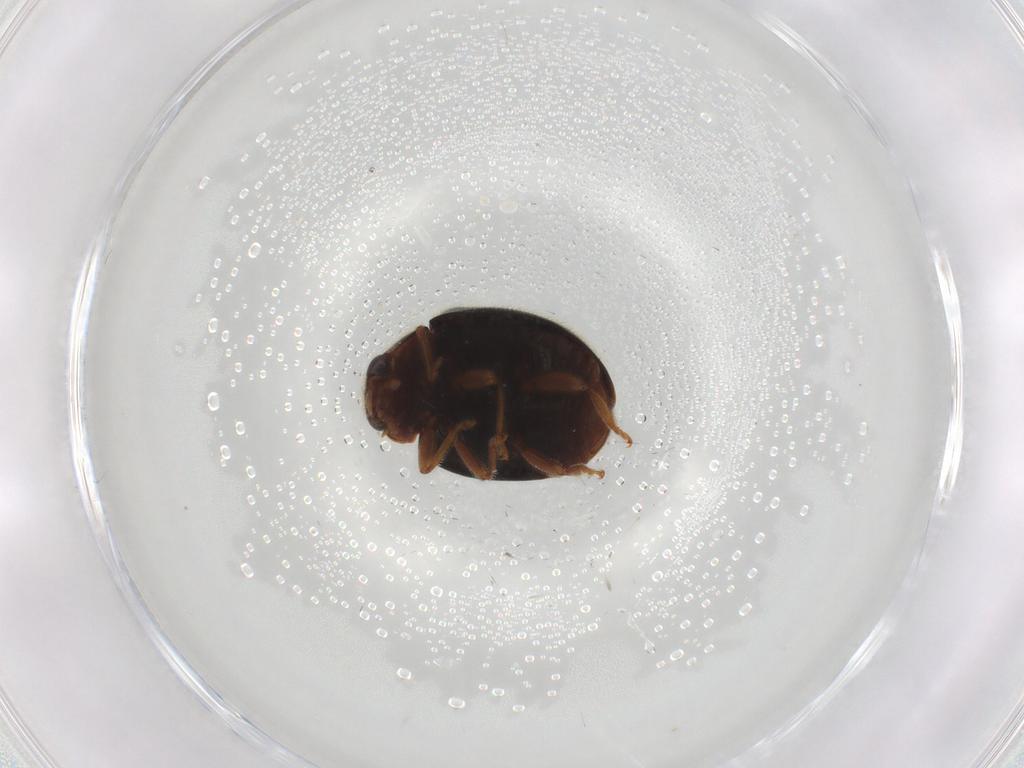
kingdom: Animalia
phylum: Arthropoda
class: Insecta
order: Coleoptera
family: Coccinellidae
